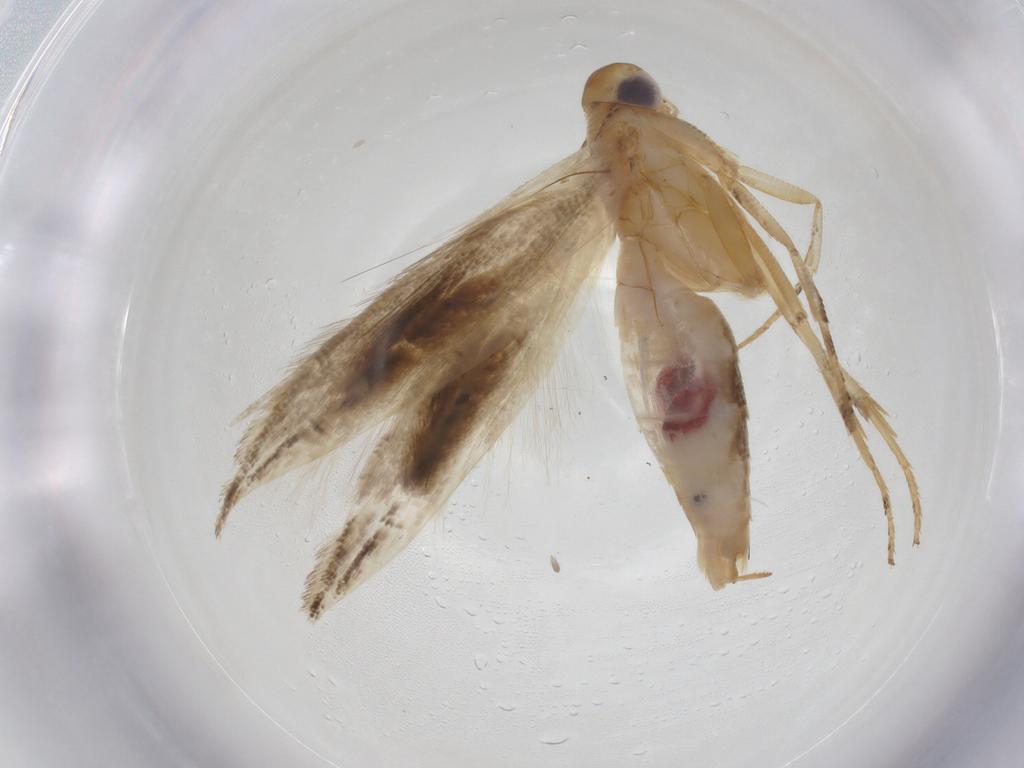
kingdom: Animalia
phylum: Arthropoda
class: Insecta
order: Lepidoptera
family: Momphidae
